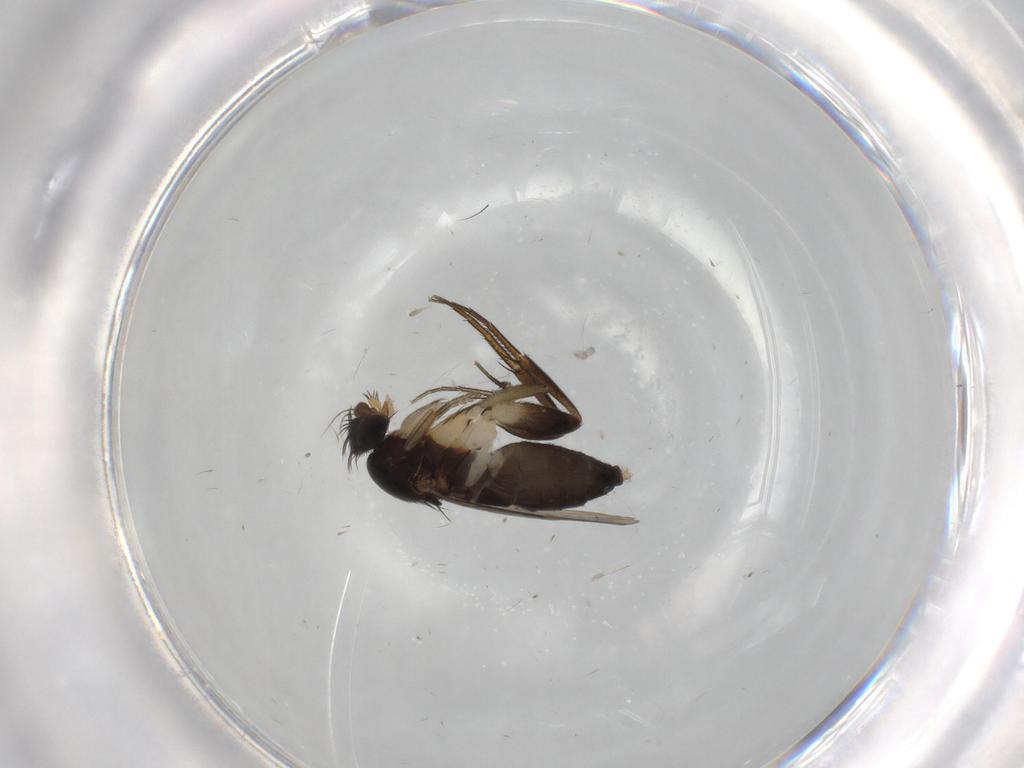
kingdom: Animalia
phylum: Arthropoda
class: Insecta
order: Diptera
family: Phoridae
